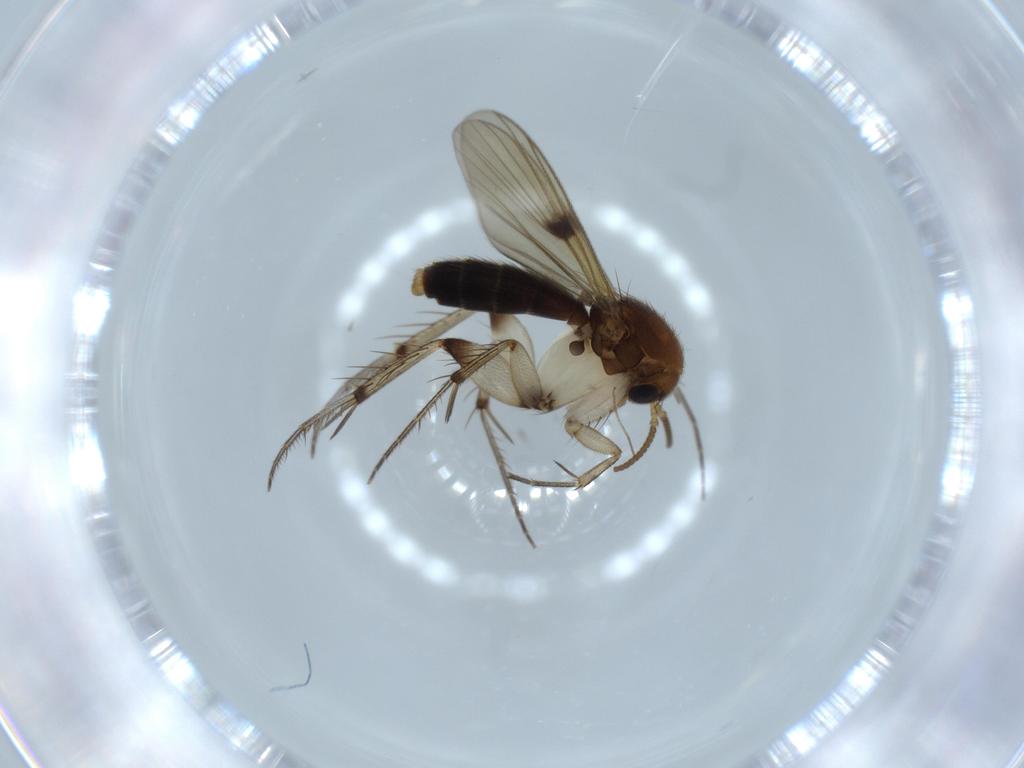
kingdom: Animalia
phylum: Arthropoda
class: Insecta
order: Diptera
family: Mycetophilidae
